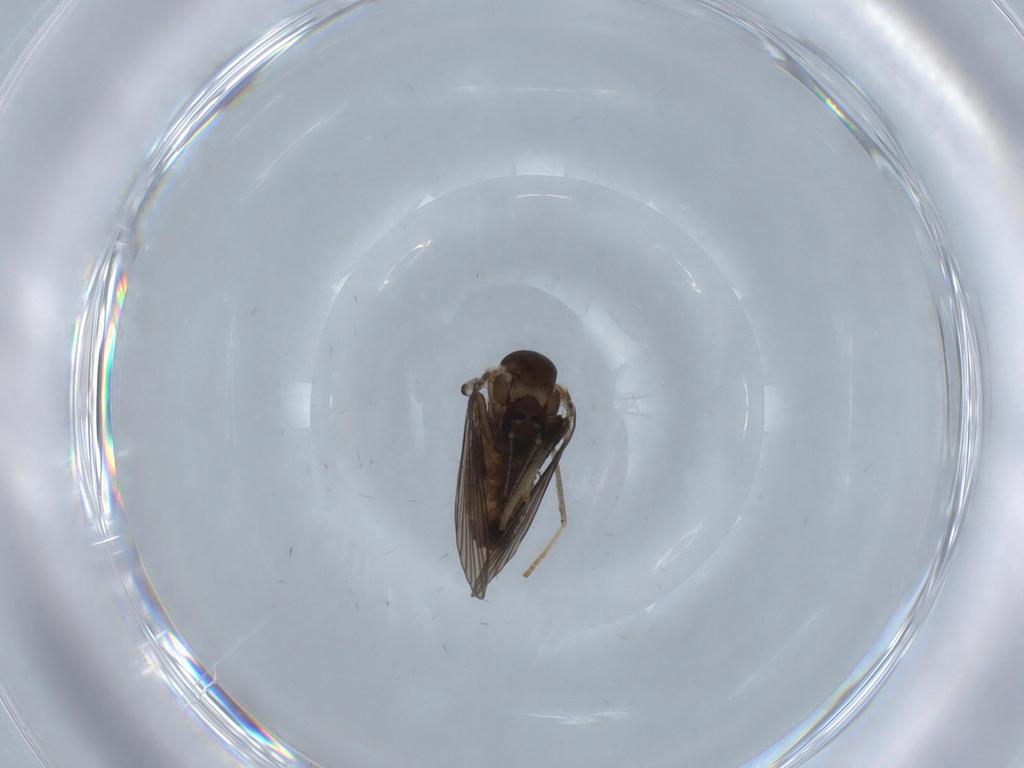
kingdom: Animalia
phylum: Arthropoda
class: Insecta
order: Diptera
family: Psychodidae
